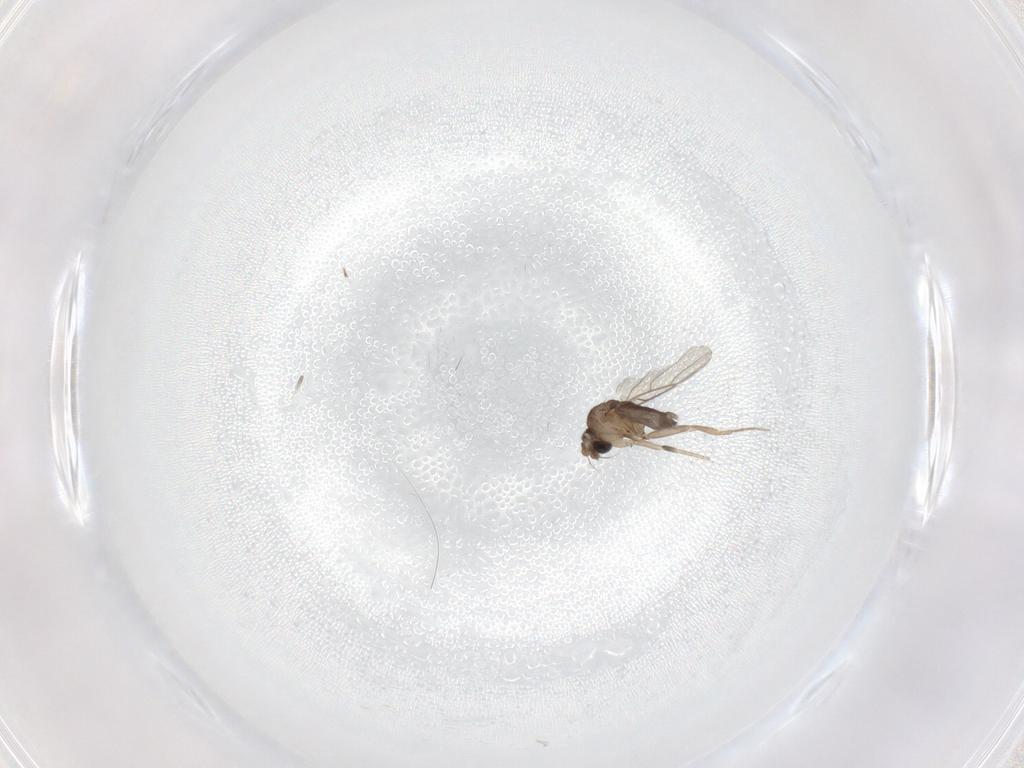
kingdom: Animalia
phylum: Arthropoda
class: Insecta
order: Diptera
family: Phoridae
